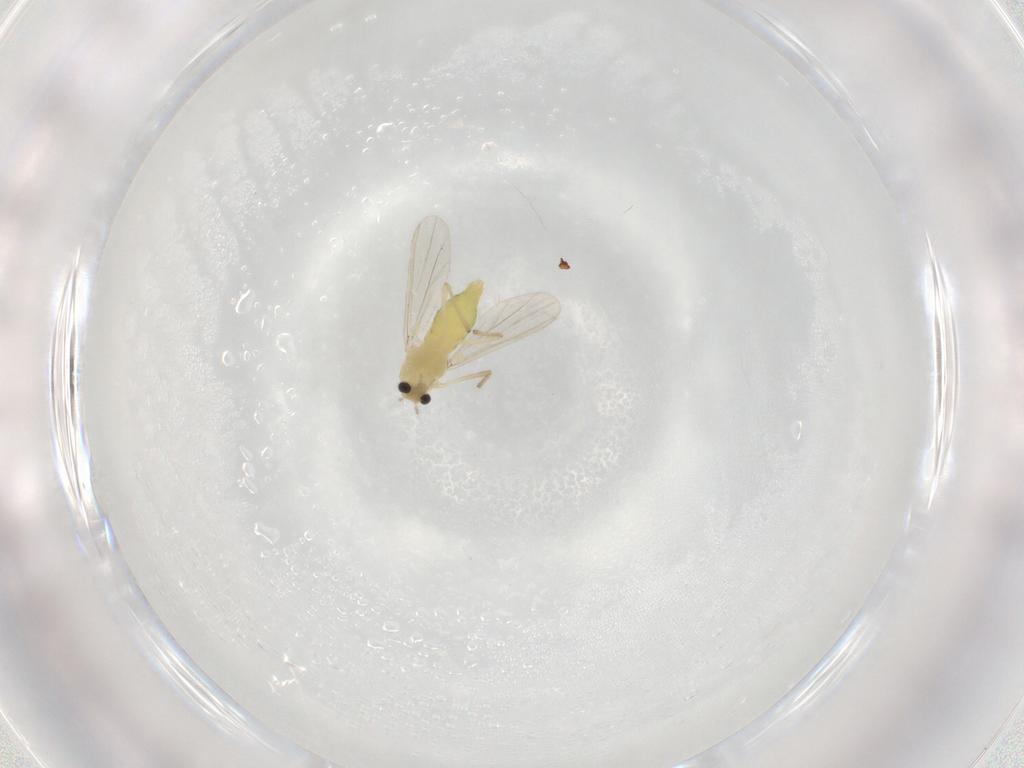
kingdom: Animalia
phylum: Arthropoda
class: Insecta
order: Diptera
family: Chironomidae
